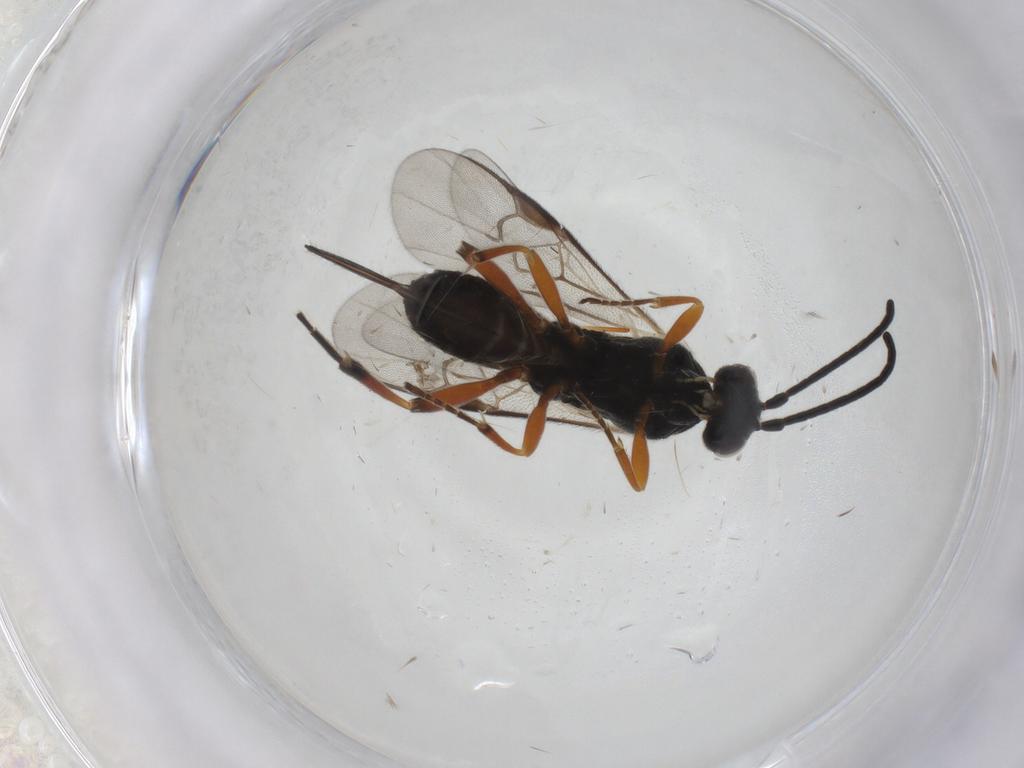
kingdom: Animalia
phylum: Arthropoda
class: Insecta
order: Hymenoptera
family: Braconidae
